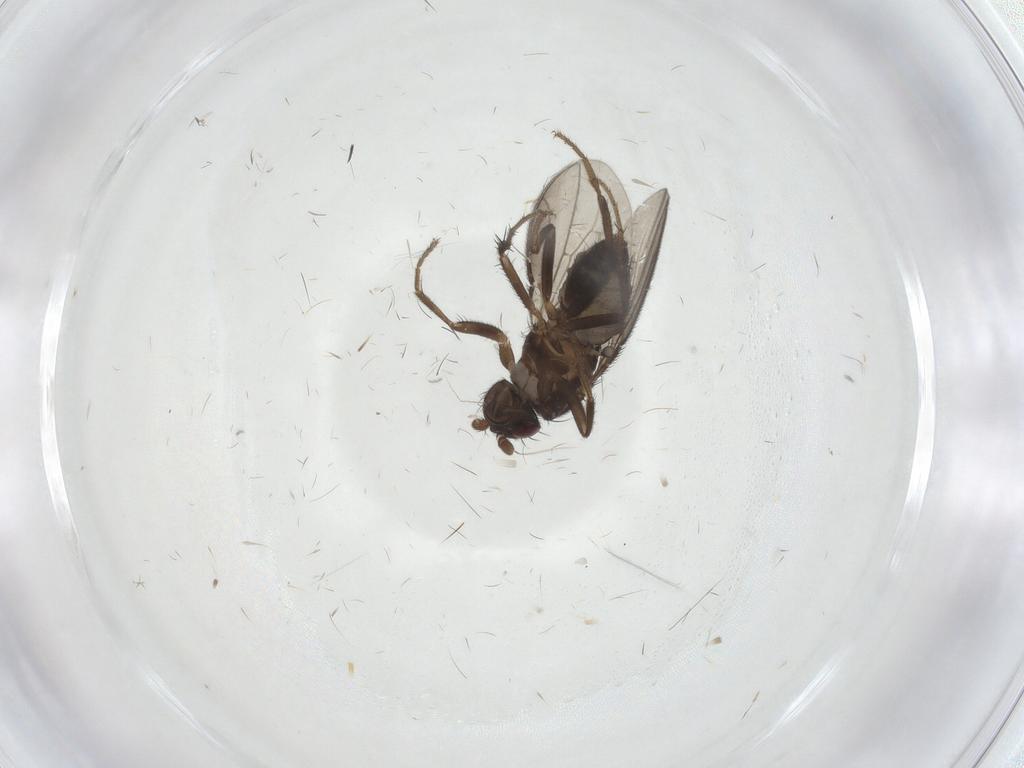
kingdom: Animalia
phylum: Arthropoda
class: Insecta
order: Diptera
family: Sphaeroceridae
